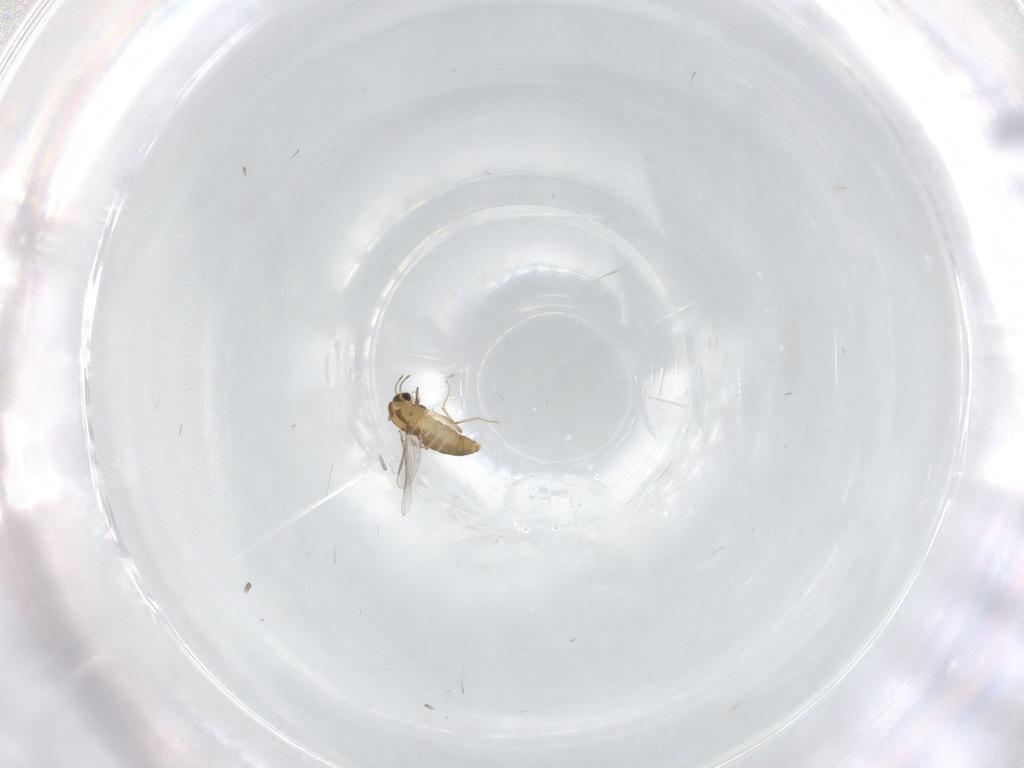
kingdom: Animalia
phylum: Arthropoda
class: Insecta
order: Diptera
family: Chironomidae
